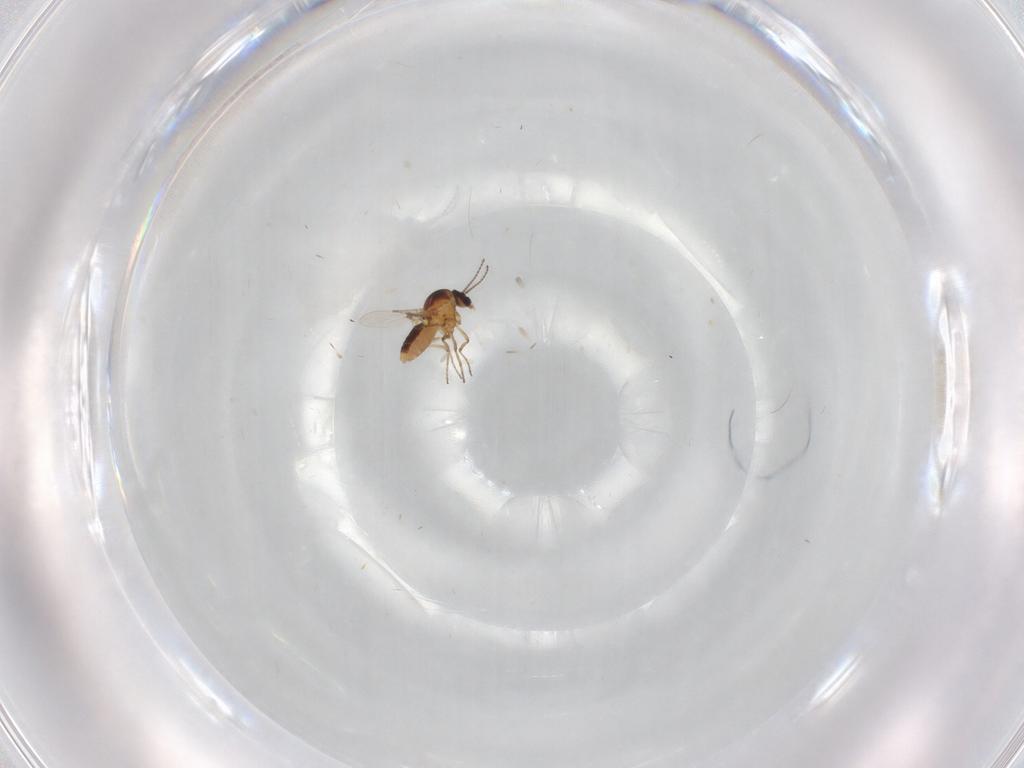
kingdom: Animalia
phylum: Arthropoda
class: Insecta
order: Diptera
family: Ceratopogonidae
